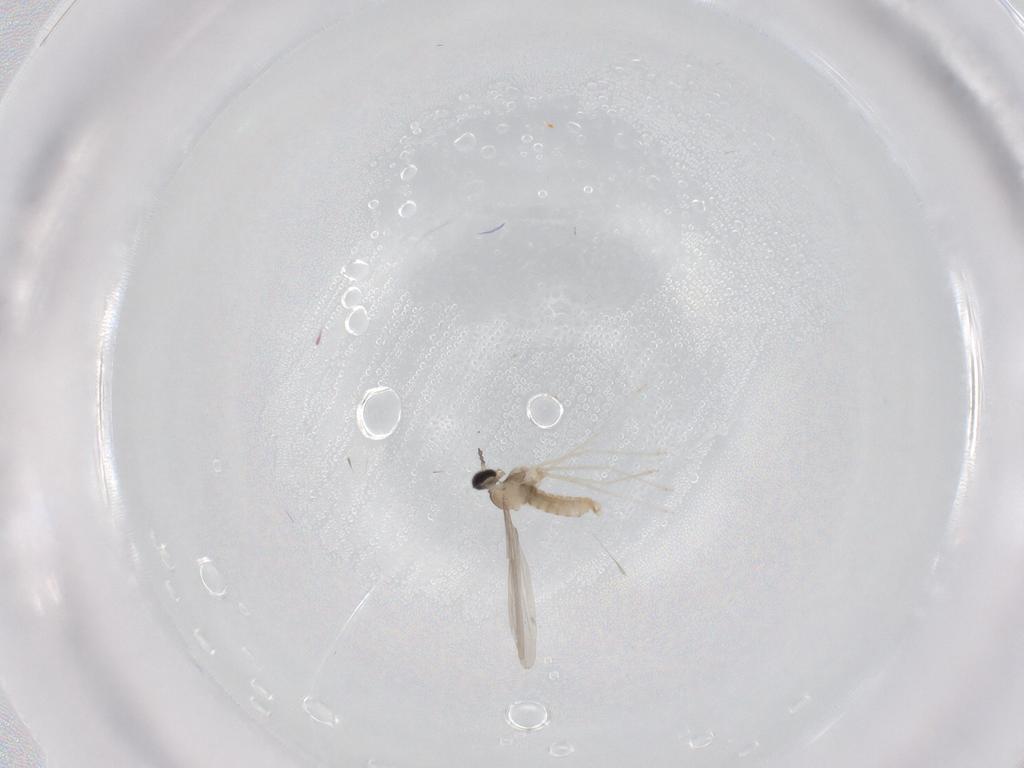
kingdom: Animalia
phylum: Arthropoda
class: Insecta
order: Diptera
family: Cecidomyiidae
